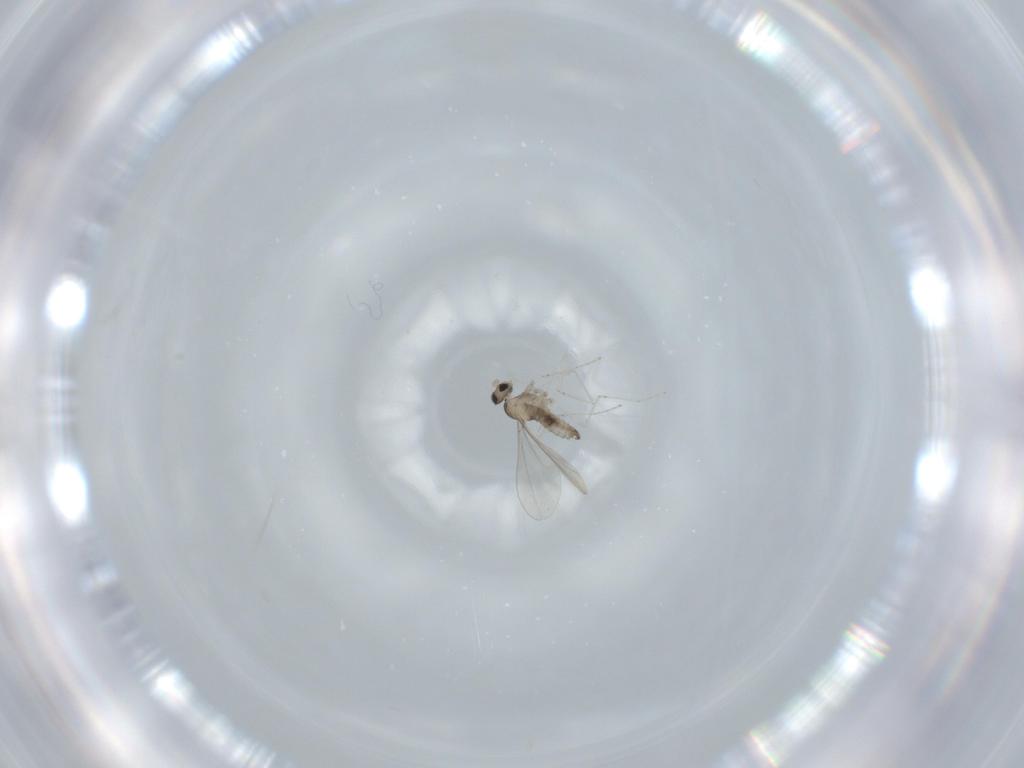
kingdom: Animalia
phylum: Arthropoda
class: Insecta
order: Diptera
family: Cecidomyiidae
